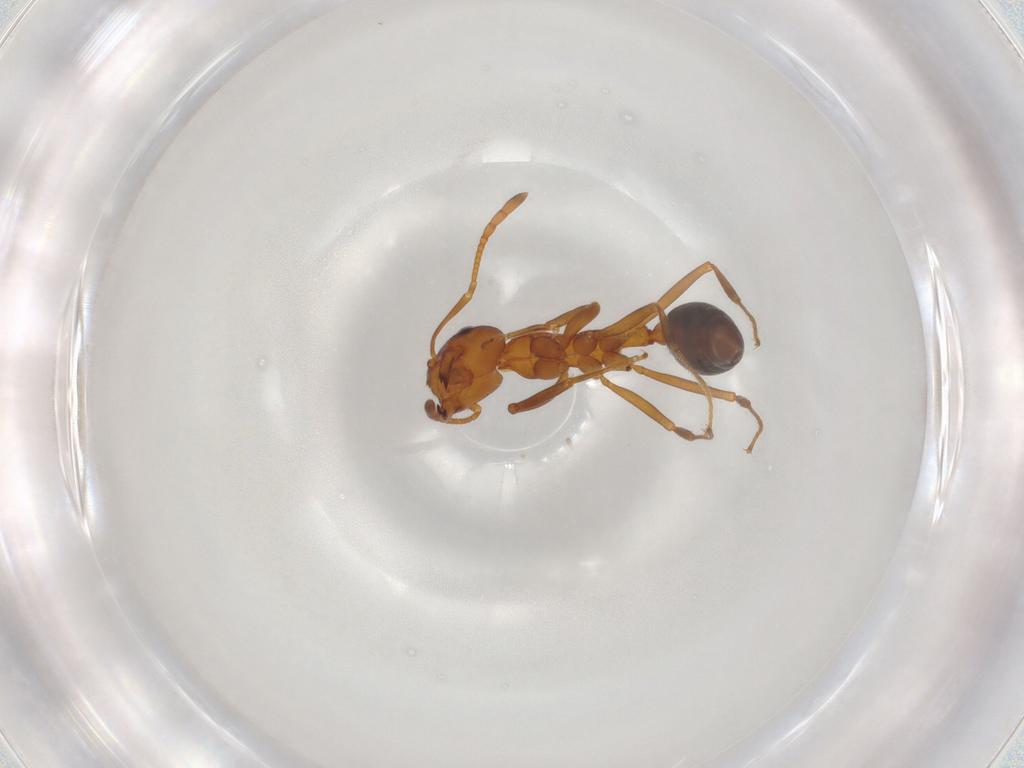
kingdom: Animalia
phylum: Arthropoda
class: Insecta
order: Hymenoptera
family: Formicidae
